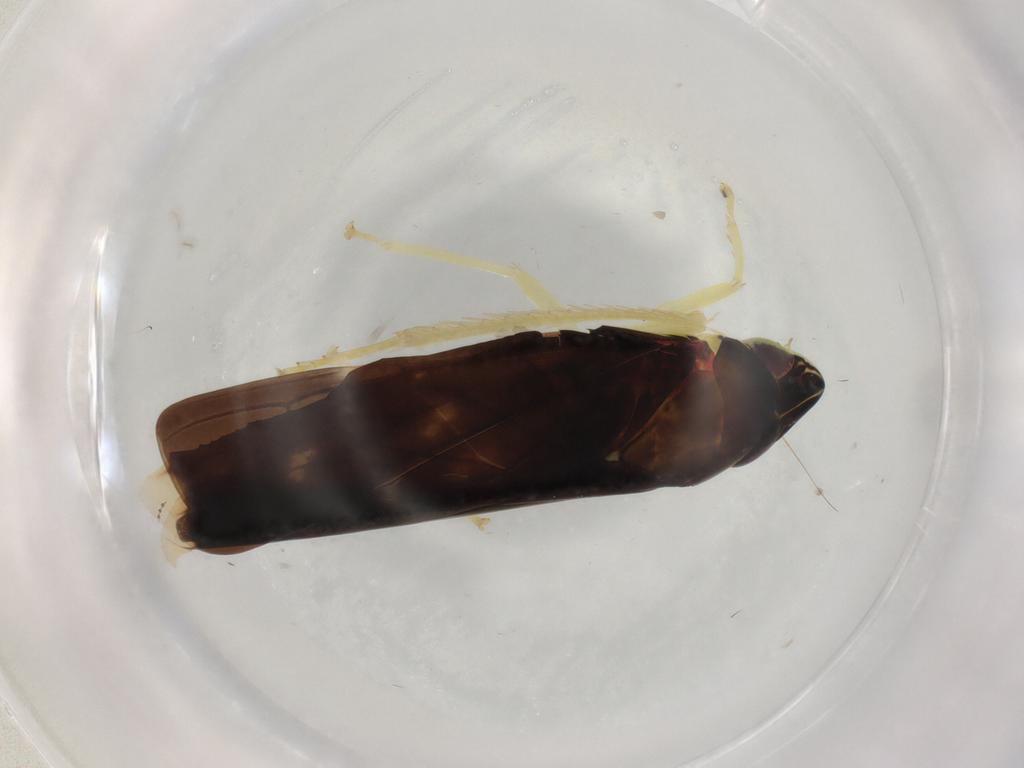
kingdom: Animalia
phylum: Arthropoda
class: Insecta
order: Hemiptera
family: Cicadellidae
